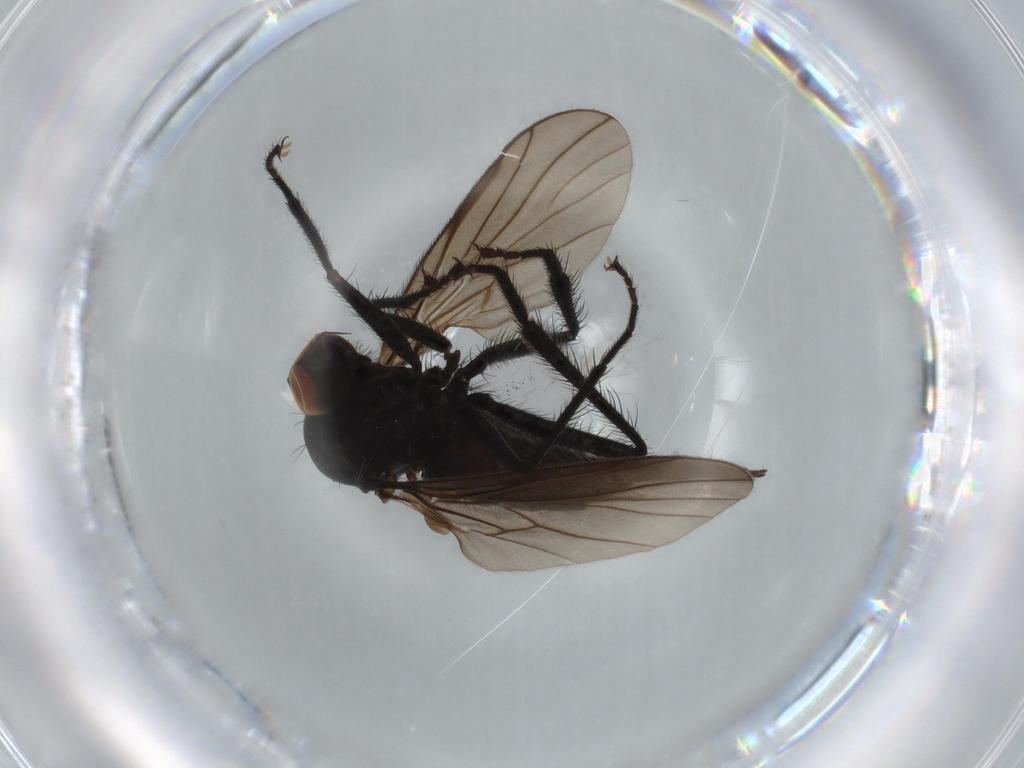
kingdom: Animalia
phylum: Arthropoda
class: Insecta
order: Diptera
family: Hybotidae
